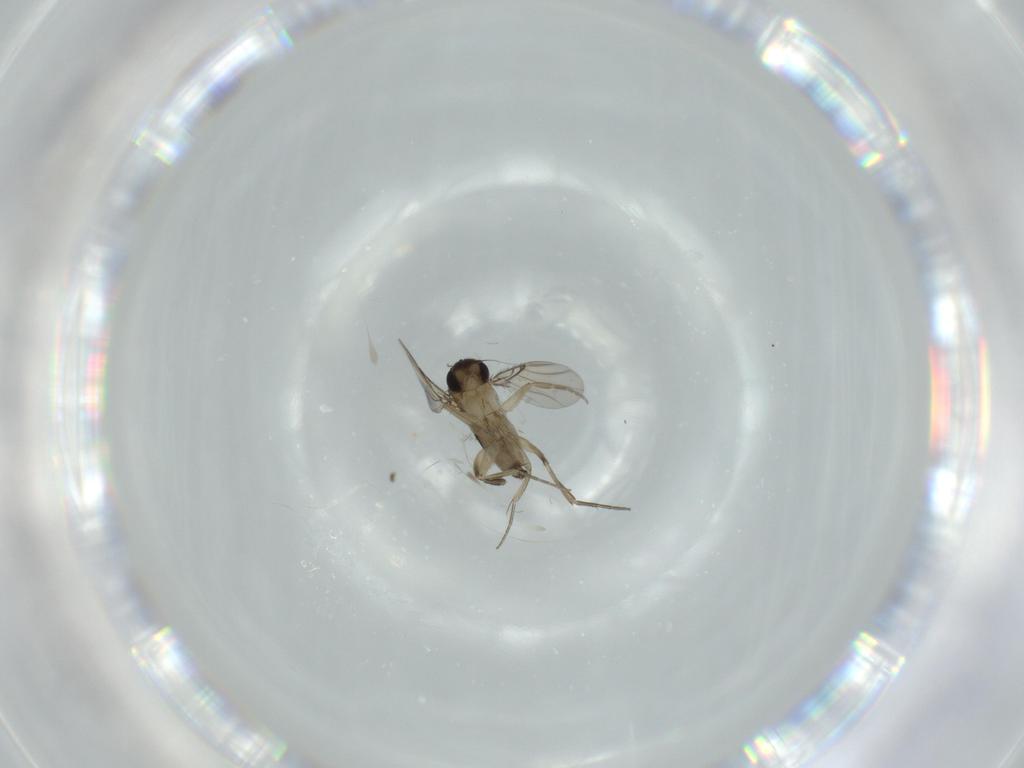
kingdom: Animalia
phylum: Arthropoda
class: Insecta
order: Diptera
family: Phoridae
